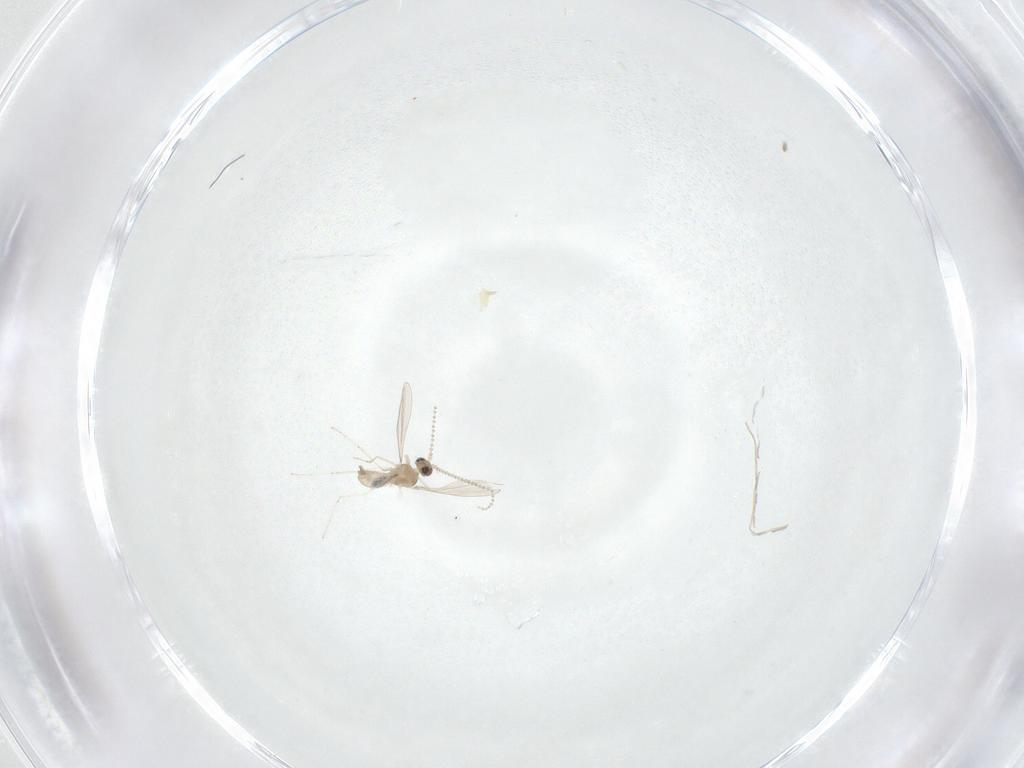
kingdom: Animalia
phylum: Arthropoda
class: Insecta
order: Diptera
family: Cecidomyiidae
